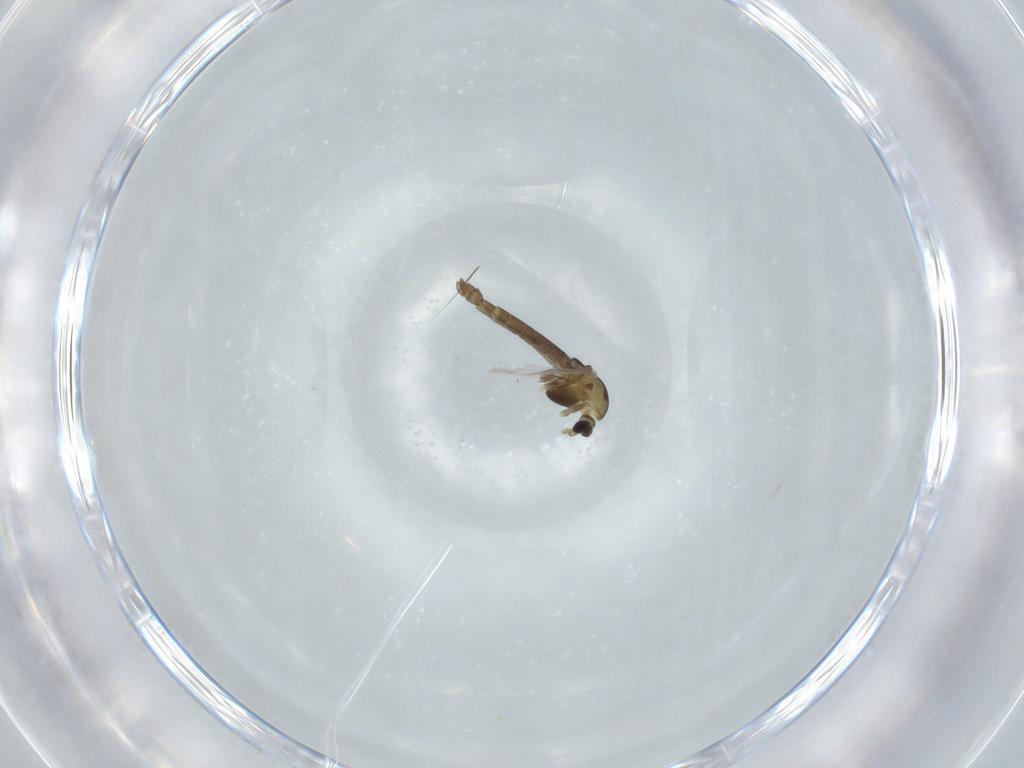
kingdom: Animalia
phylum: Arthropoda
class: Insecta
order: Diptera
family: Chironomidae
